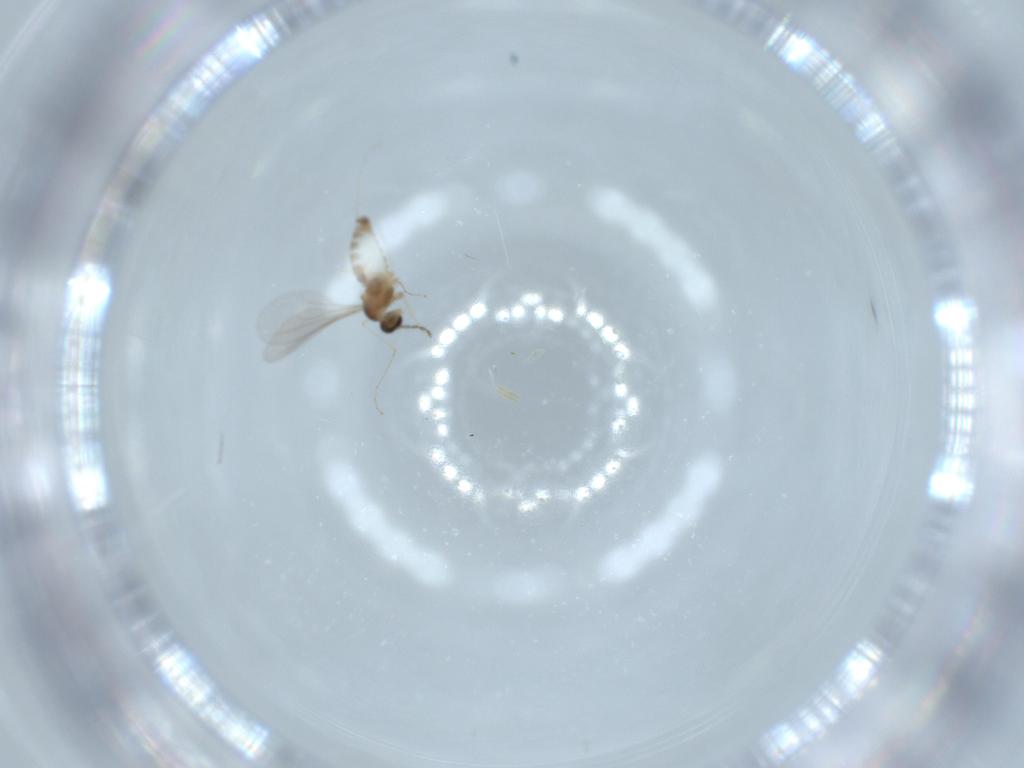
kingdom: Animalia
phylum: Arthropoda
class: Insecta
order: Diptera
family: Cecidomyiidae
